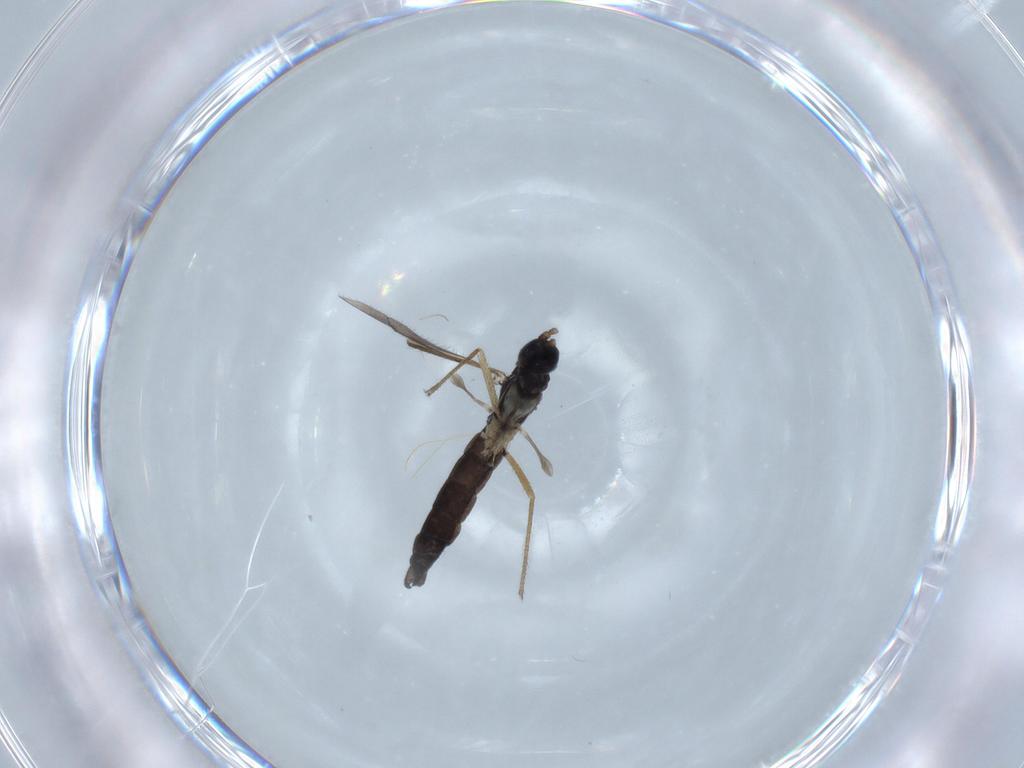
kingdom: Animalia
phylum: Arthropoda
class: Insecta
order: Diptera
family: Sciaridae
